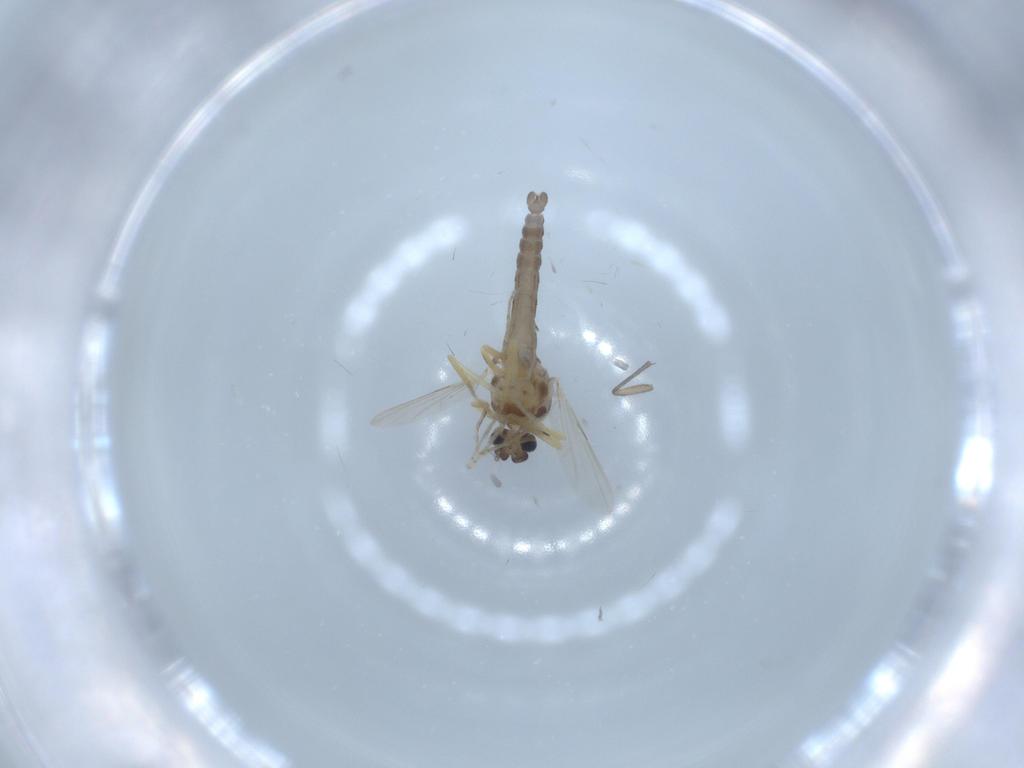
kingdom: Animalia
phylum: Arthropoda
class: Insecta
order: Diptera
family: Ceratopogonidae
